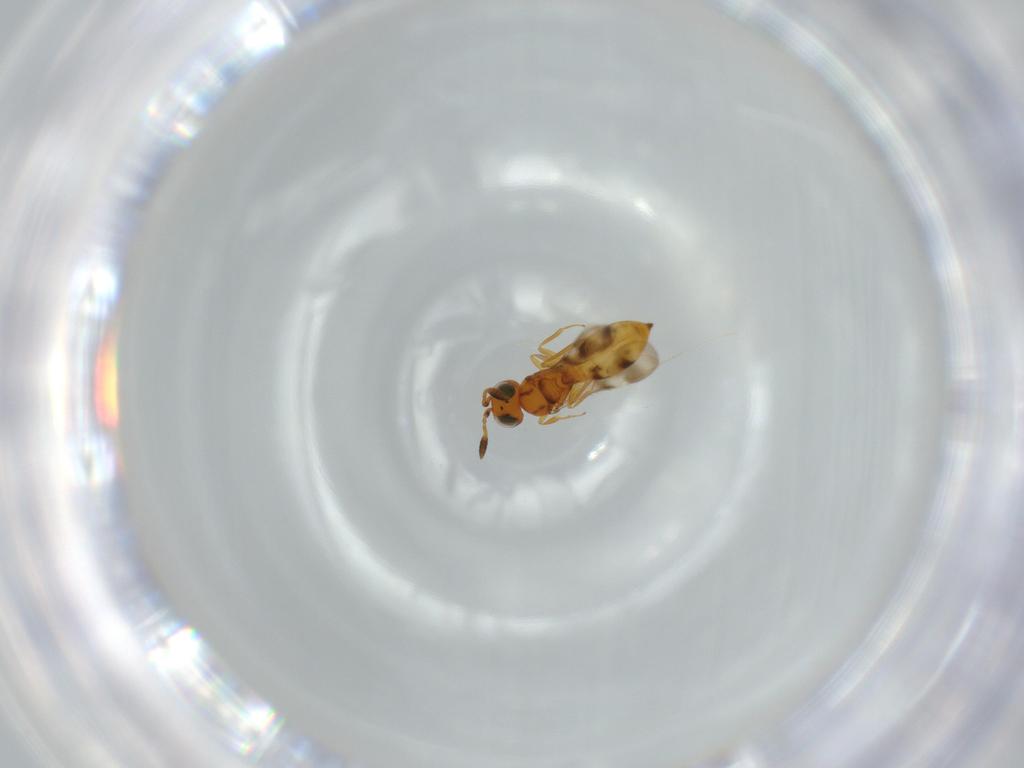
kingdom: Animalia
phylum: Arthropoda
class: Insecta
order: Hymenoptera
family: Scelionidae
